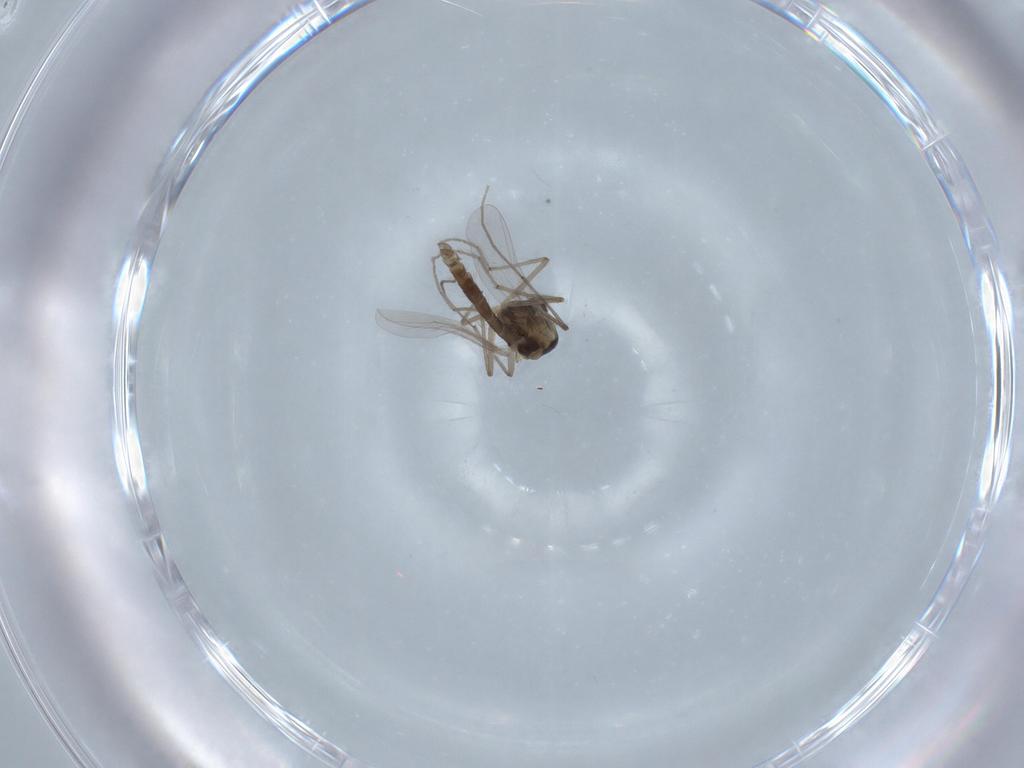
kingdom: Animalia
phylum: Arthropoda
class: Insecta
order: Diptera
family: Chironomidae
